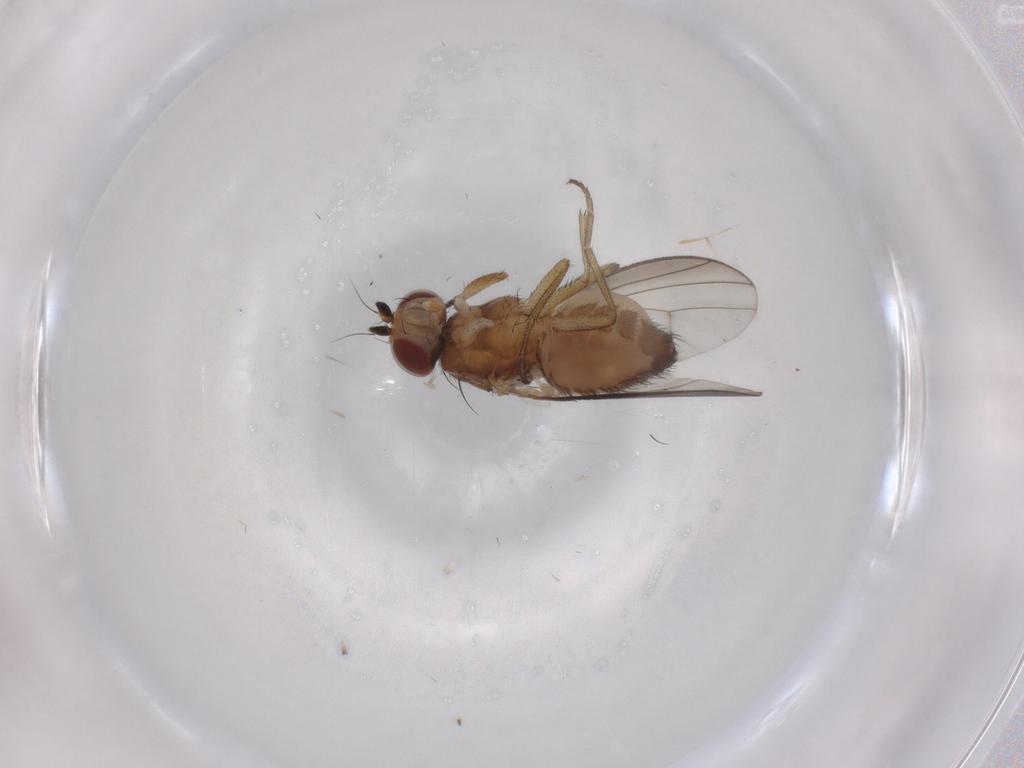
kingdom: Animalia
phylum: Arthropoda
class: Insecta
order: Diptera
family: Heleomyzidae
